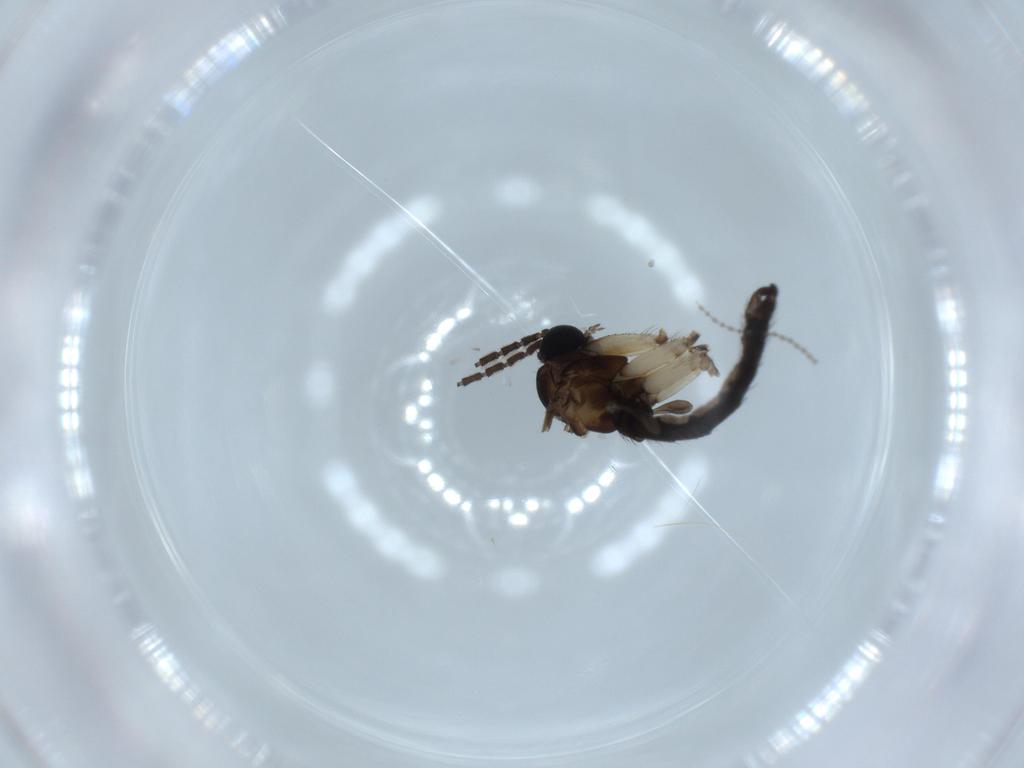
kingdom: Animalia
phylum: Arthropoda
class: Insecta
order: Diptera
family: Sciaridae
